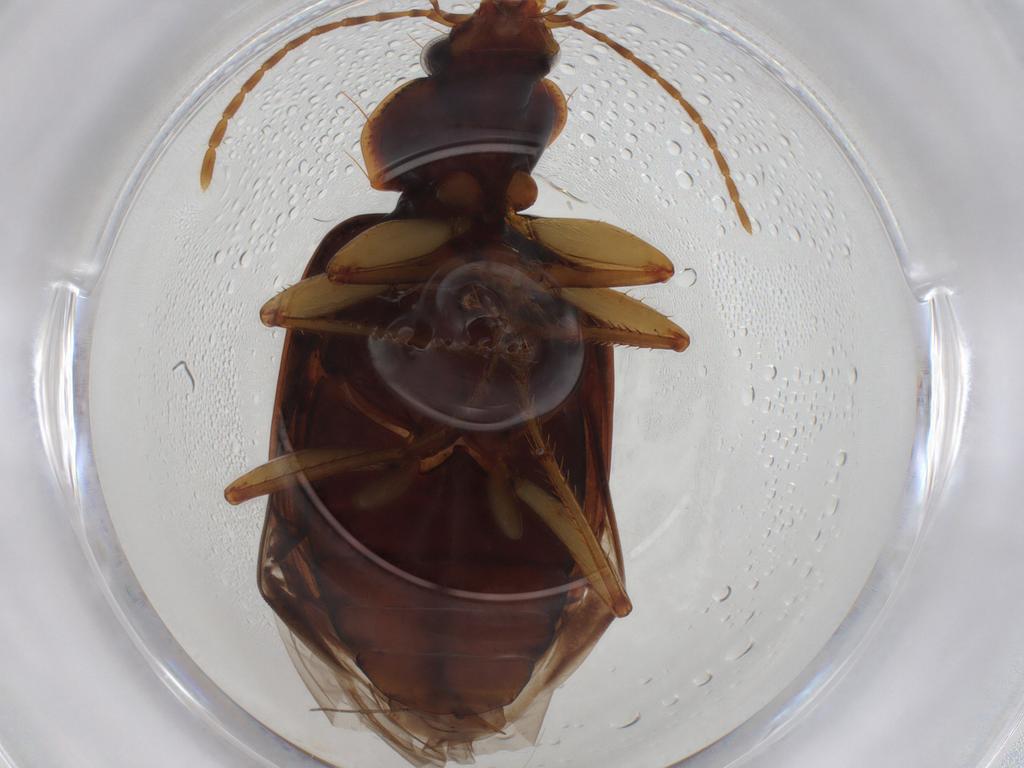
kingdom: Animalia
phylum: Arthropoda
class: Insecta
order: Coleoptera
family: Carabidae
